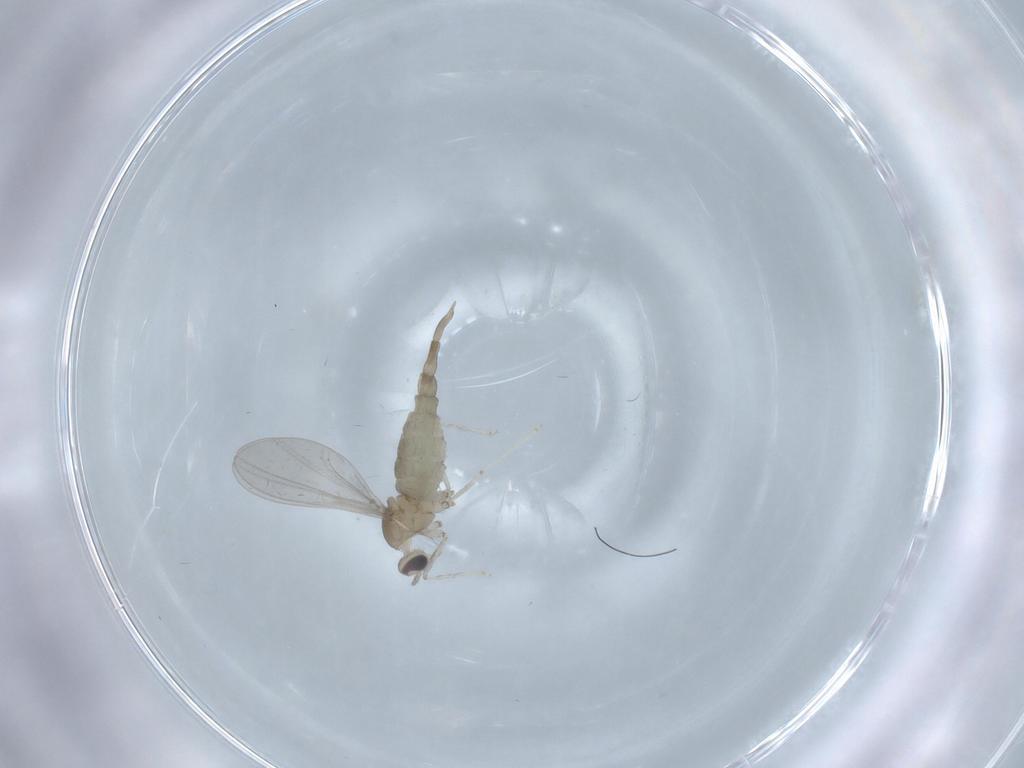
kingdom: Animalia
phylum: Arthropoda
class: Insecta
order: Diptera
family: Cecidomyiidae
